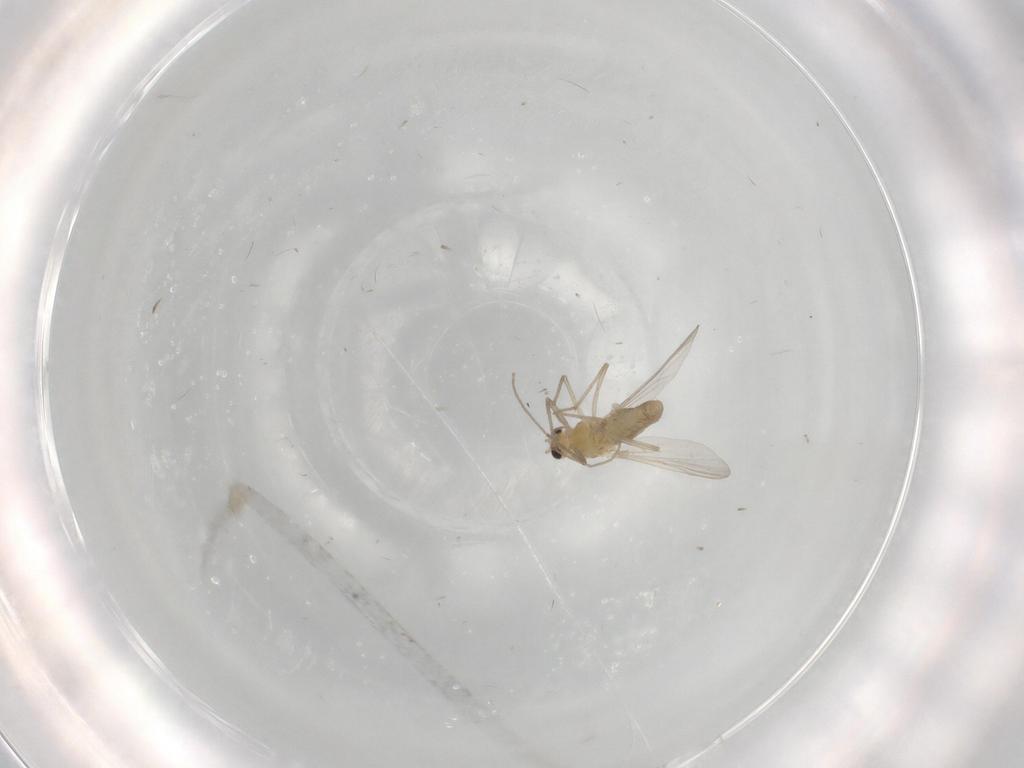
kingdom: Animalia
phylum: Arthropoda
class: Insecta
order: Diptera
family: Chironomidae
